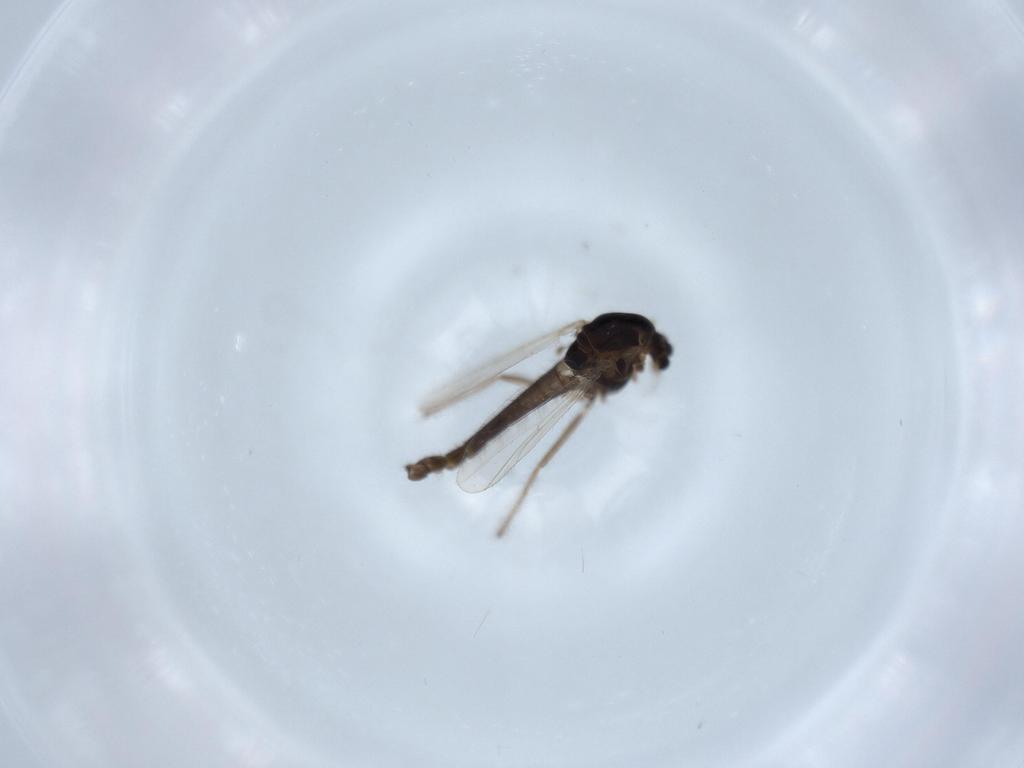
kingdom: Animalia
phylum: Arthropoda
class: Insecta
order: Diptera
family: Chironomidae
